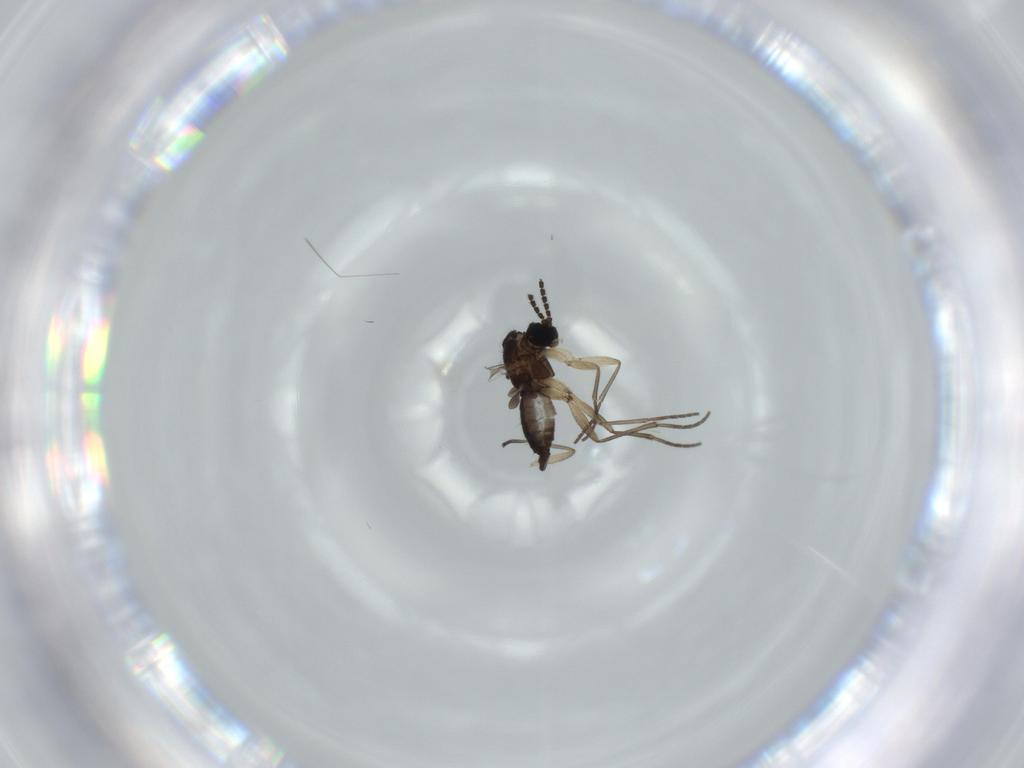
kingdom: Animalia
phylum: Arthropoda
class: Insecta
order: Diptera
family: Sciaridae
